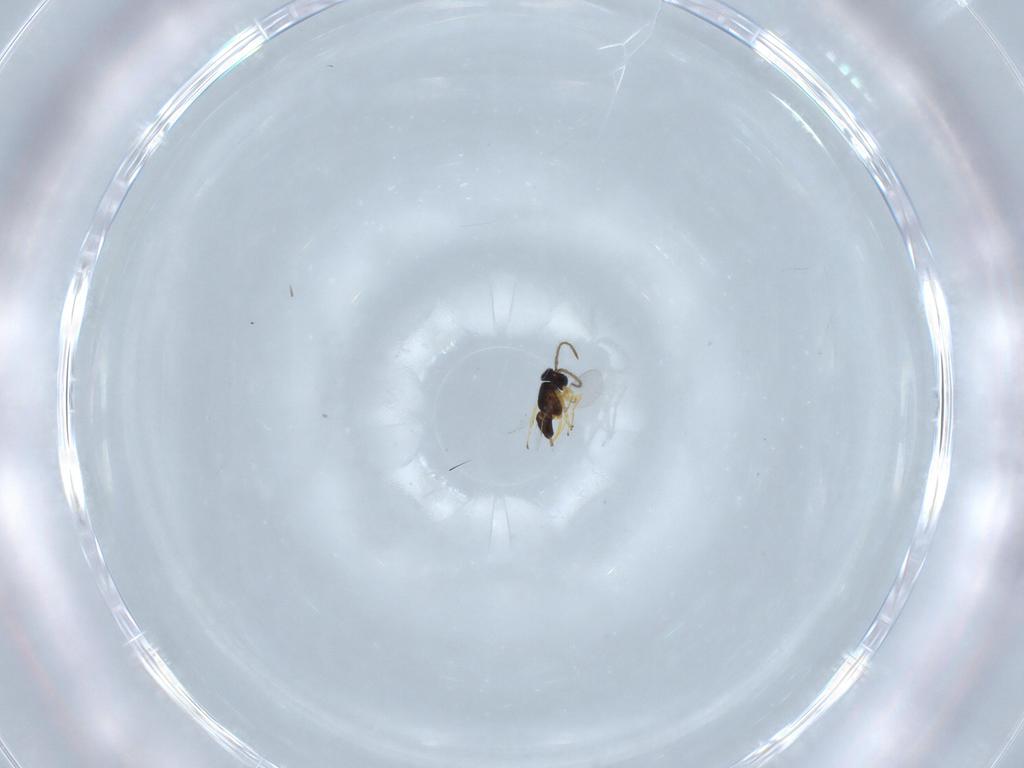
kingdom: Animalia
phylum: Arthropoda
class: Insecta
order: Hymenoptera
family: Encyrtidae
